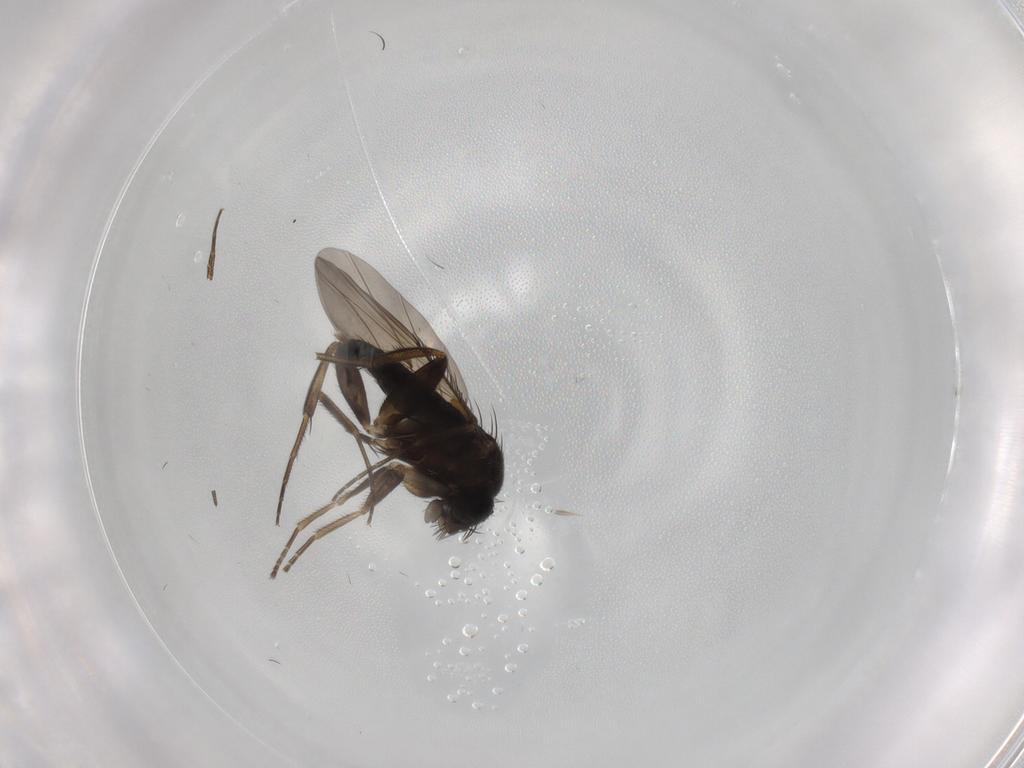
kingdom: Animalia
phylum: Arthropoda
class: Insecta
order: Diptera
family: Phoridae
